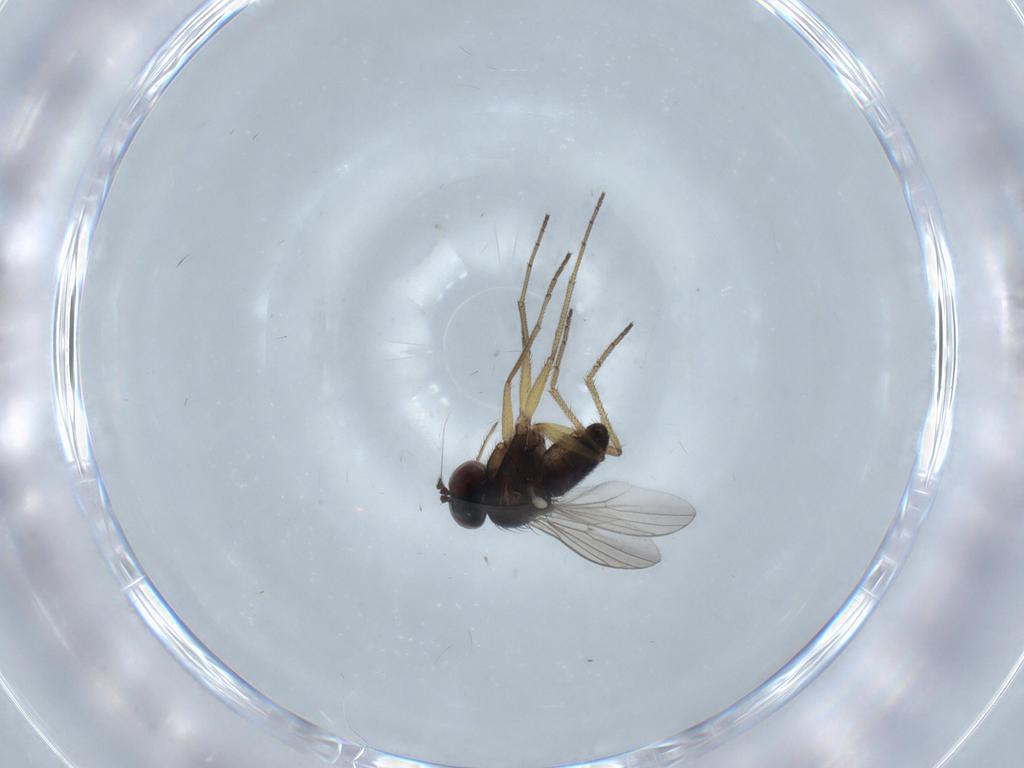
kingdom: Animalia
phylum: Arthropoda
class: Insecta
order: Diptera
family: Dolichopodidae
